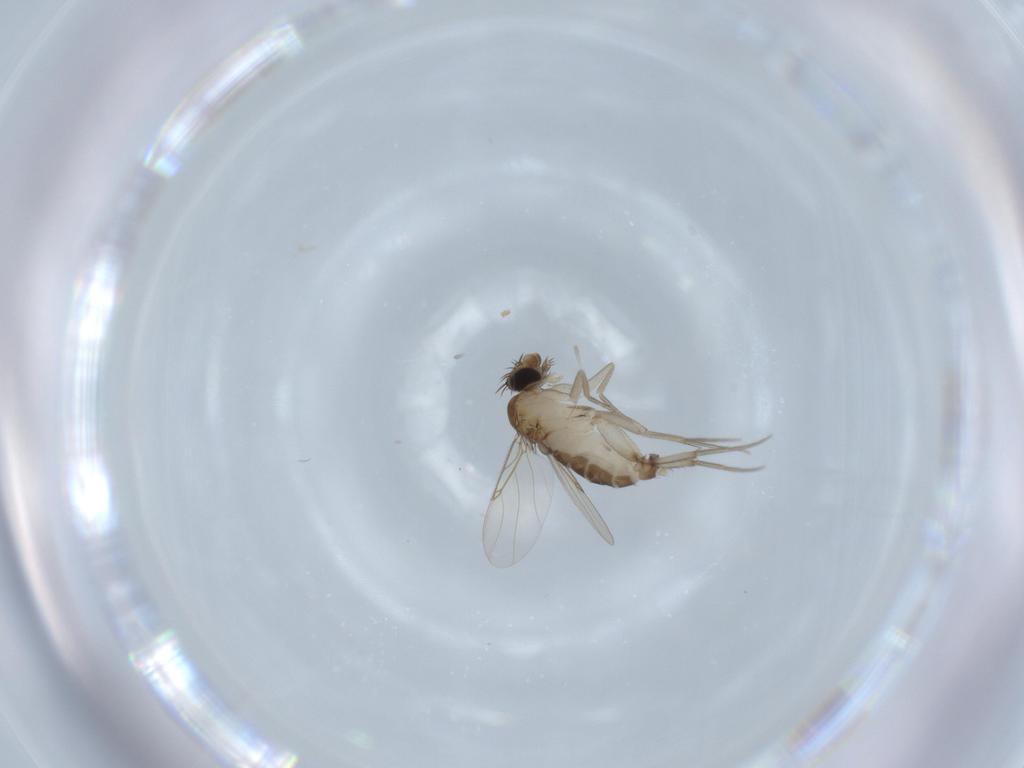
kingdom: Animalia
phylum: Arthropoda
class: Insecta
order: Diptera
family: Phoridae
